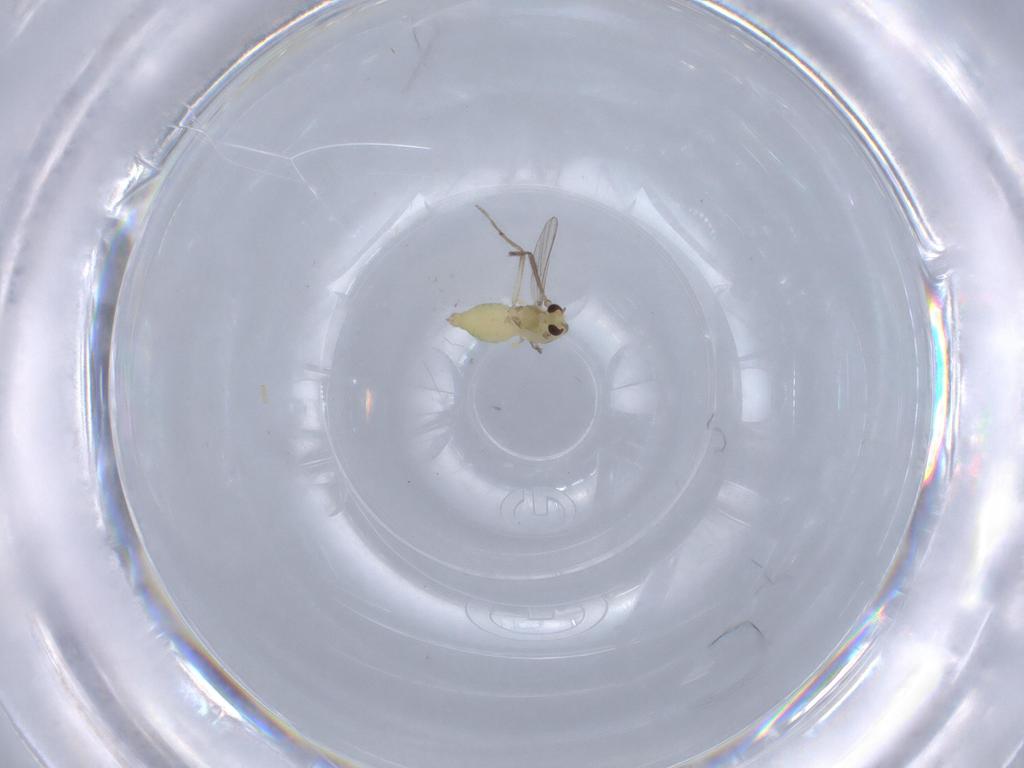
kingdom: Animalia
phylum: Arthropoda
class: Insecta
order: Diptera
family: Chironomidae
